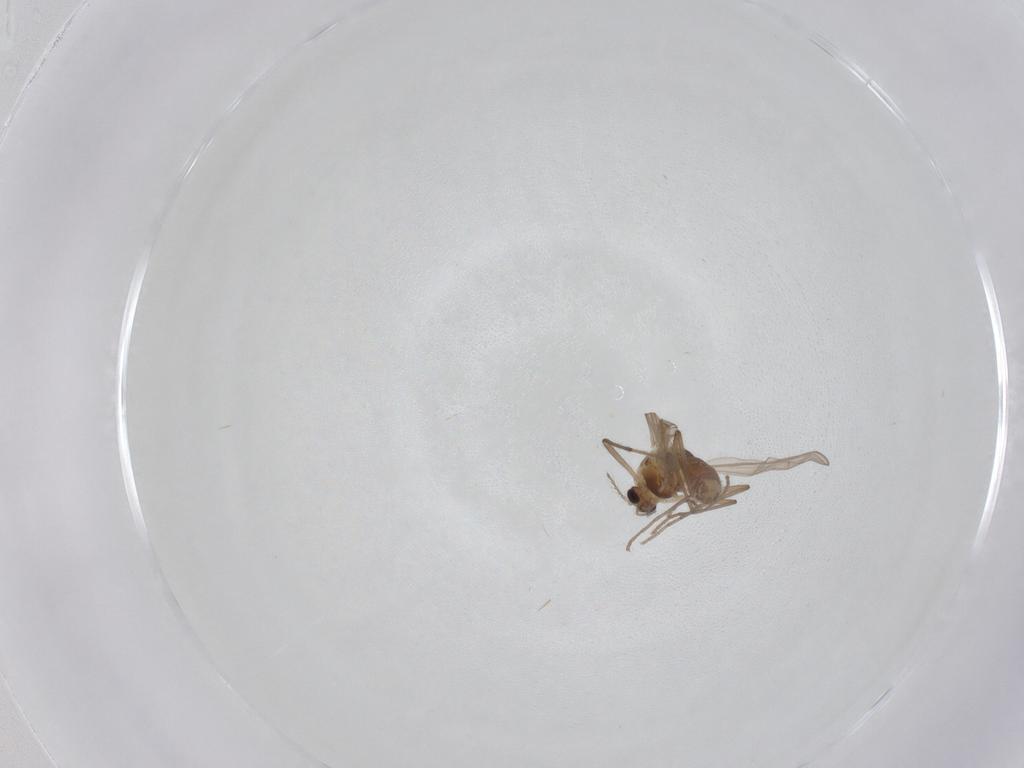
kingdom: Animalia
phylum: Arthropoda
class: Insecta
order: Diptera
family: Chironomidae
